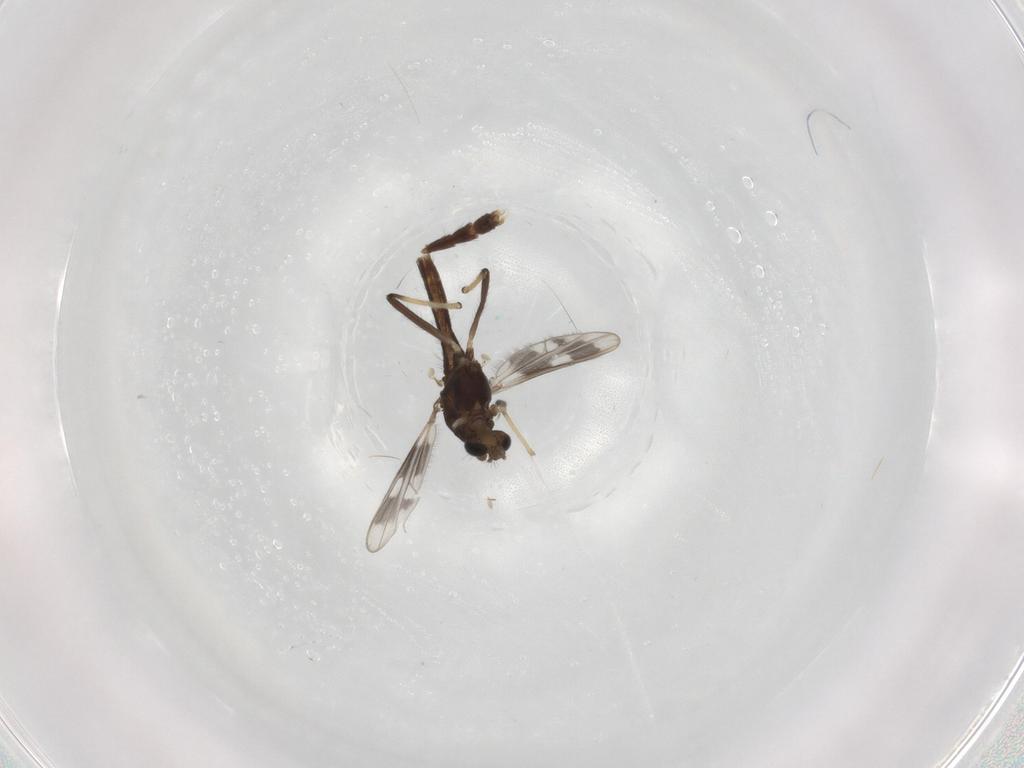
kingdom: Animalia
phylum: Arthropoda
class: Insecta
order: Diptera
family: Chironomidae
